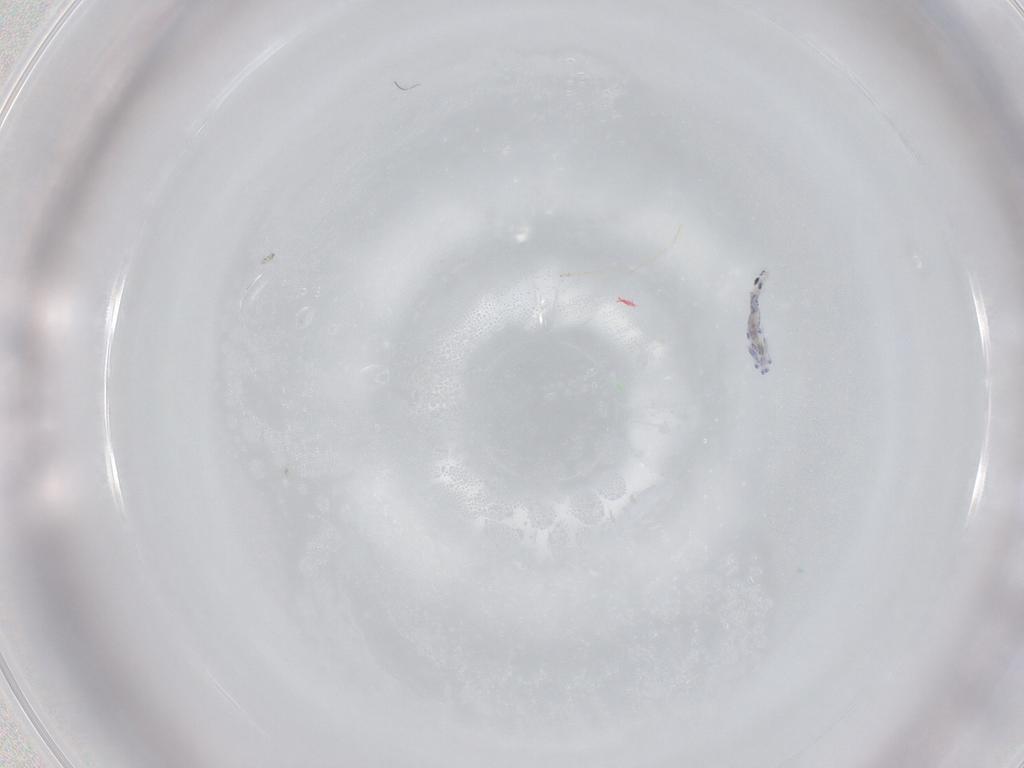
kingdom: Animalia
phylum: Arthropoda
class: Collembola
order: Entomobryomorpha
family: Entomobryidae
